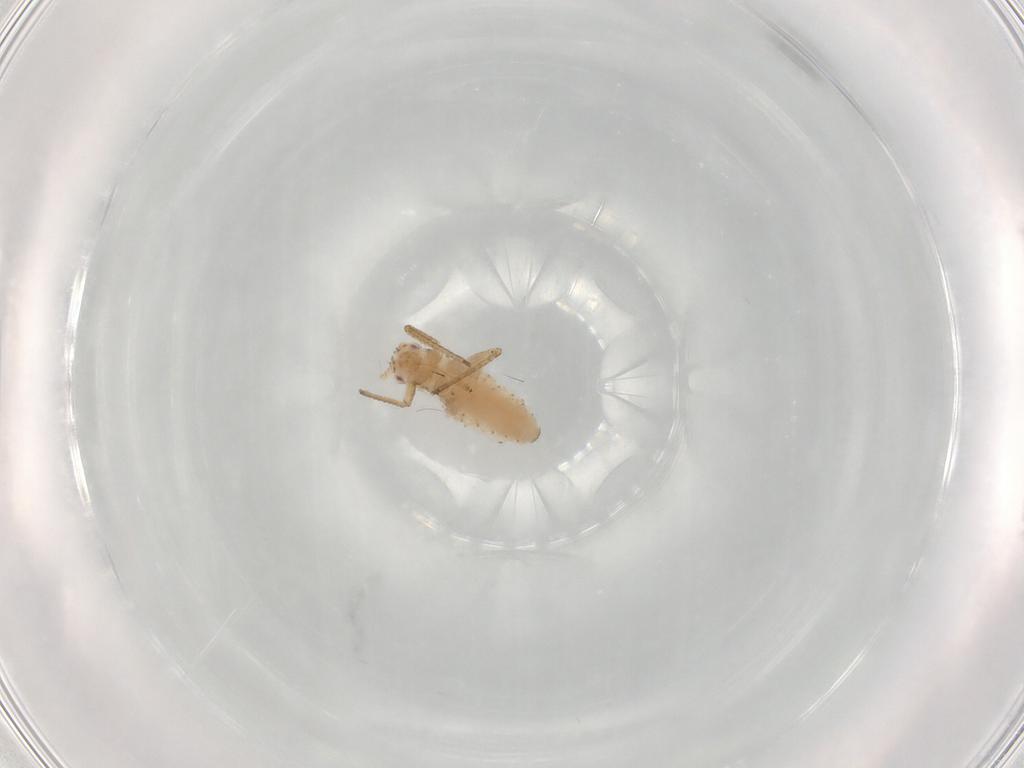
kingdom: Animalia
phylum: Arthropoda
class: Insecta
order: Hemiptera
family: Aphididae
